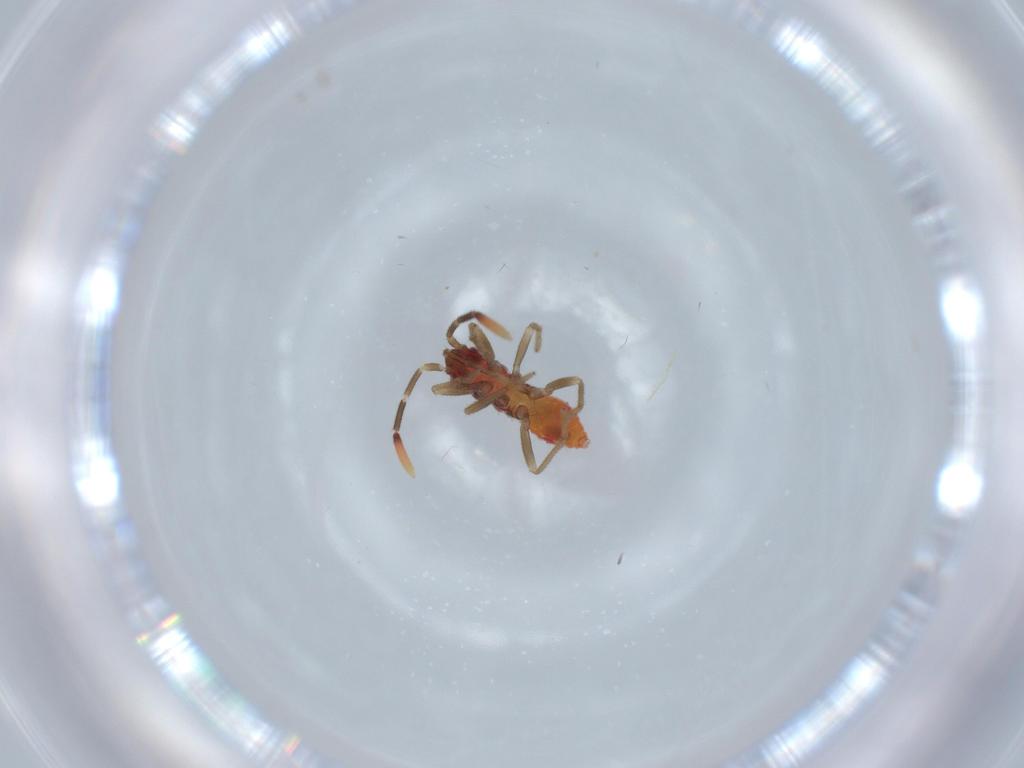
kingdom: Animalia
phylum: Arthropoda
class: Insecta
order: Hemiptera
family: Rhyparochromidae
